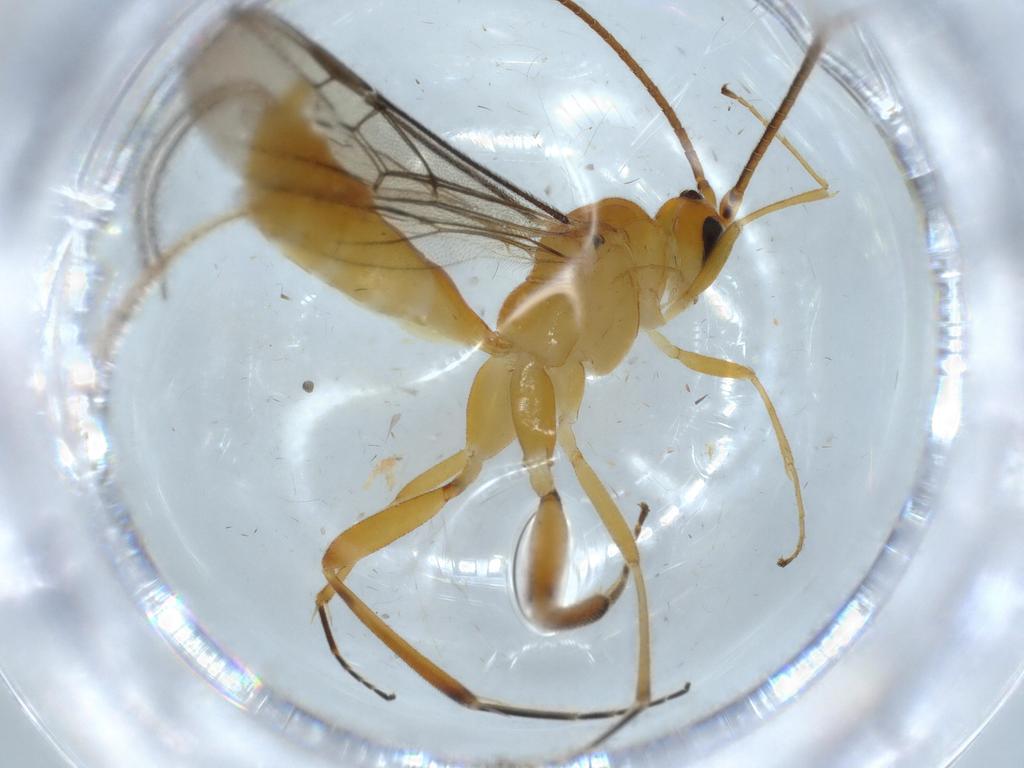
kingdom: Animalia
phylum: Arthropoda
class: Insecta
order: Hymenoptera
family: Diapriidae
